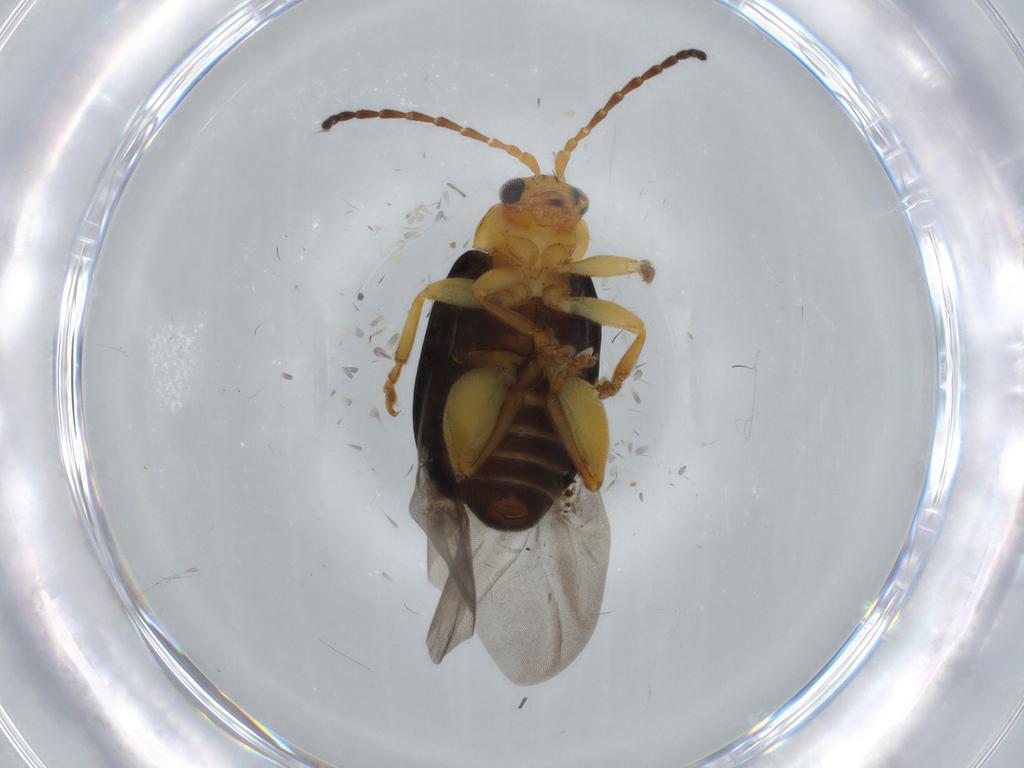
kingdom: Animalia
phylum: Arthropoda
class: Insecta
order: Coleoptera
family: Chrysomelidae
